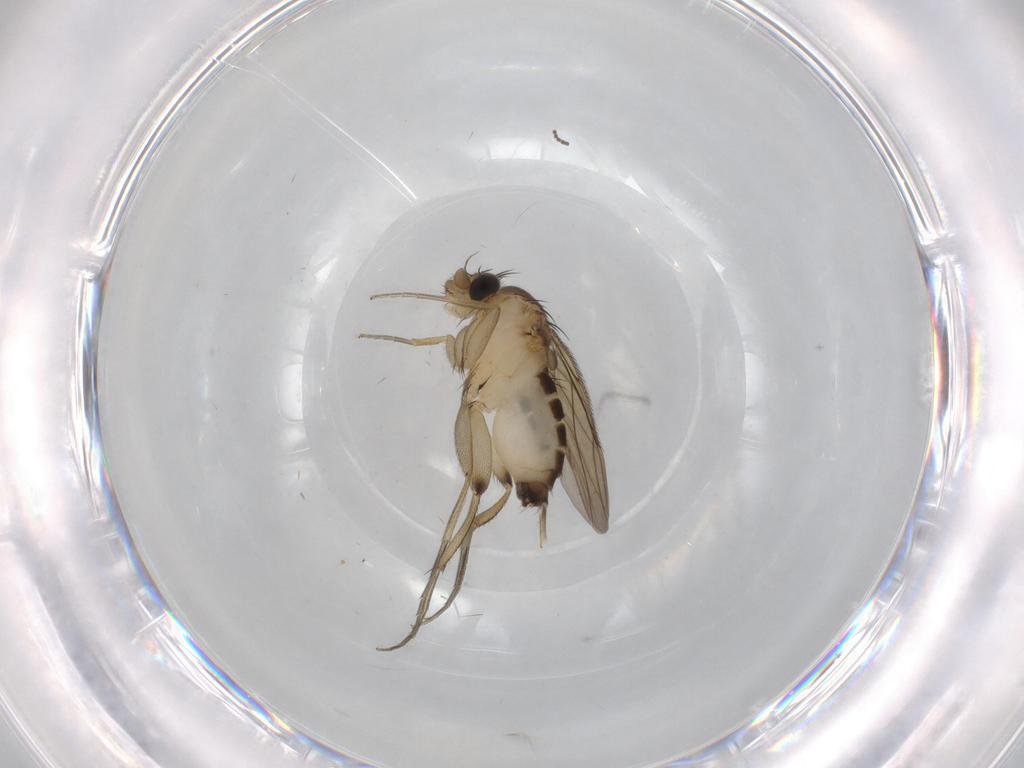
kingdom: Animalia
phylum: Arthropoda
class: Insecta
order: Diptera
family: Phoridae
